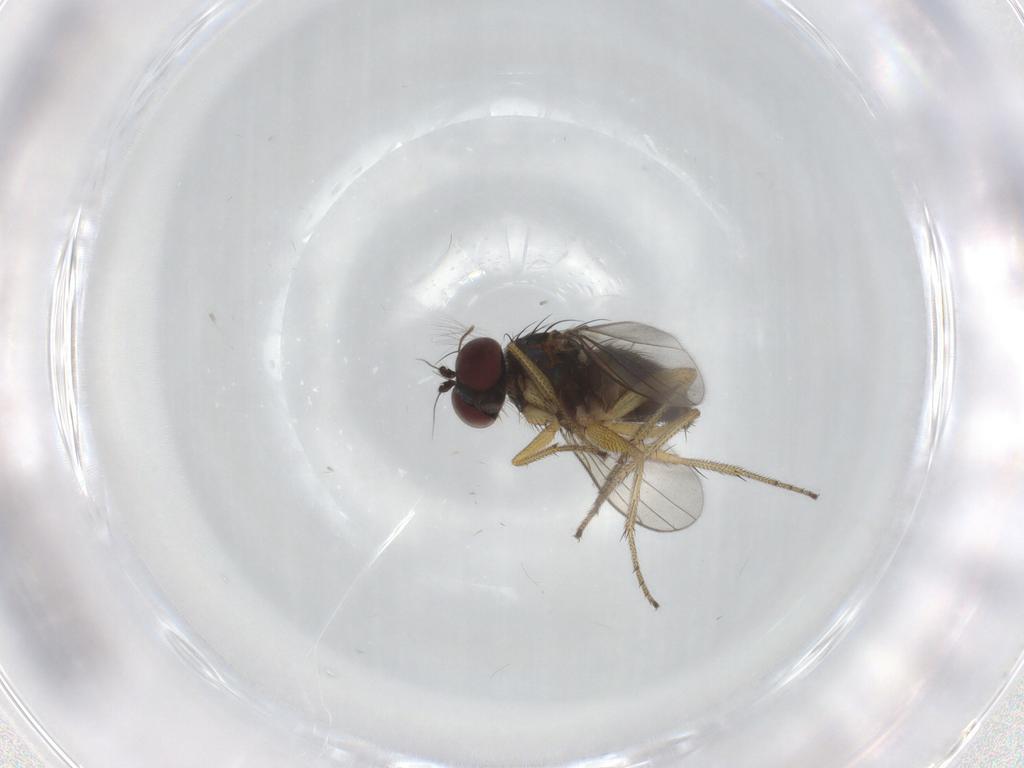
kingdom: Animalia
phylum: Arthropoda
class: Insecta
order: Diptera
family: Dolichopodidae
